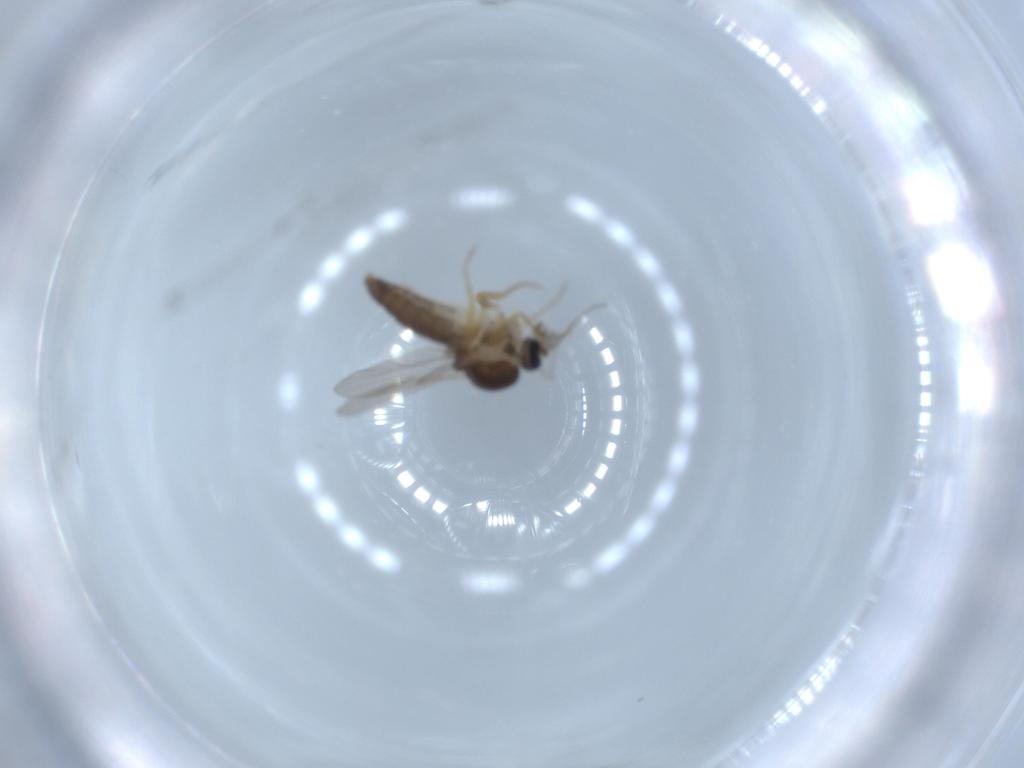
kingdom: Animalia
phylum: Arthropoda
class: Insecta
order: Diptera
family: Ceratopogonidae
